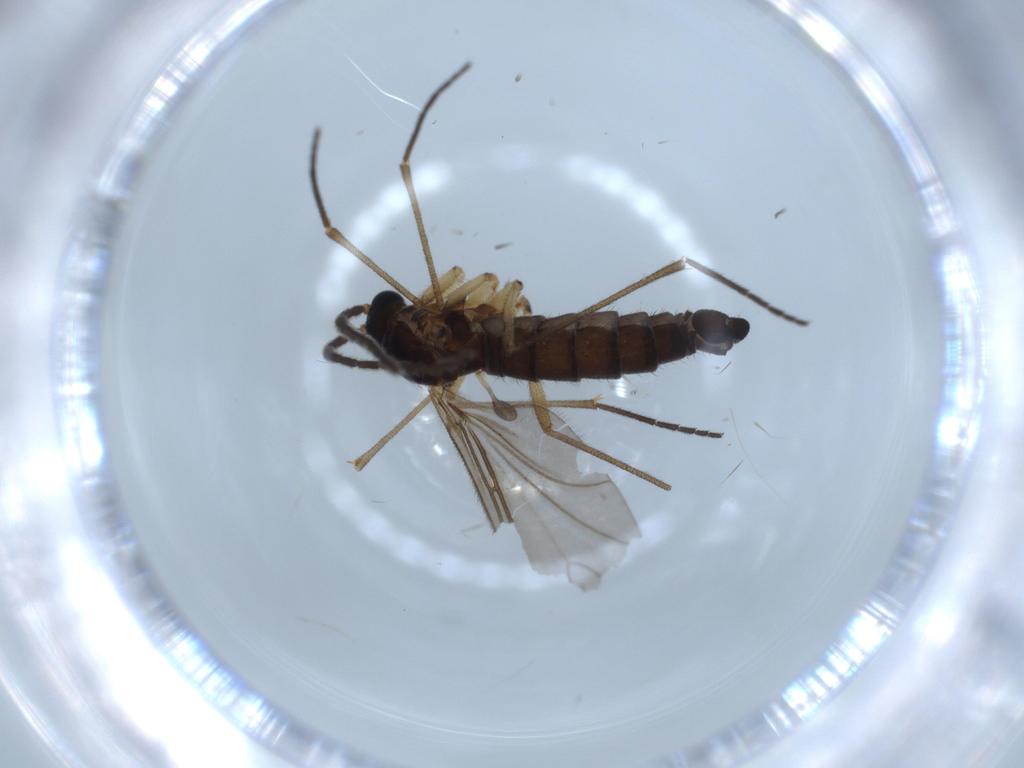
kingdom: Animalia
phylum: Arthropoda
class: Insecta
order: Diptera
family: Sciaridae
